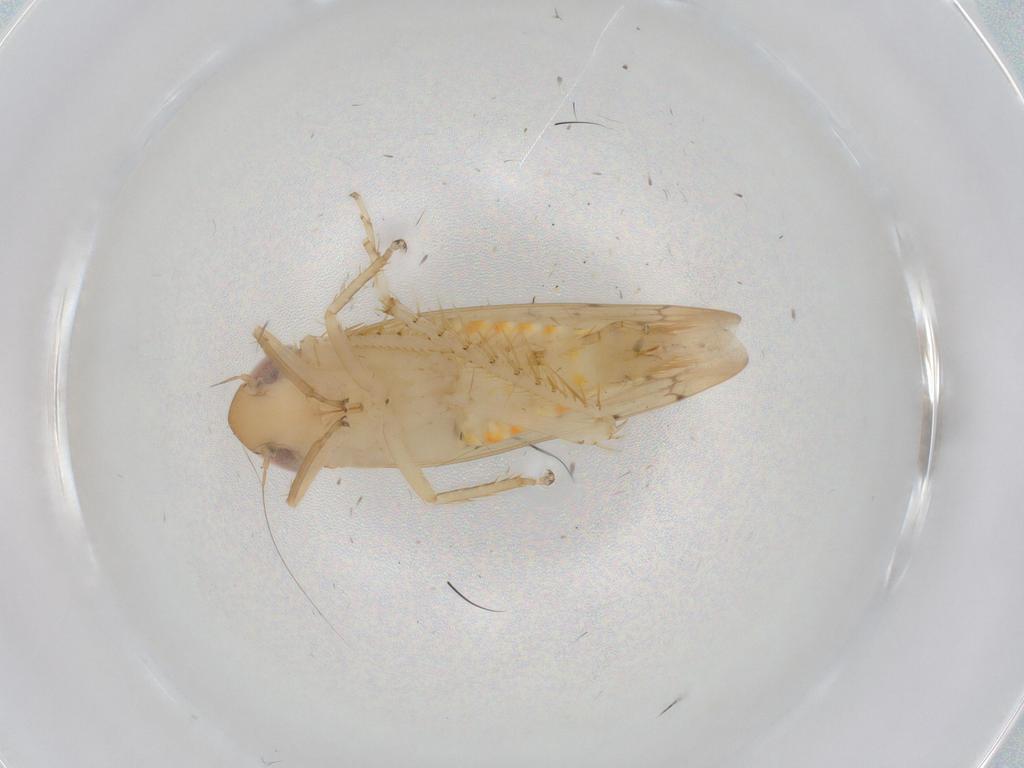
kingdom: Animalia
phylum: Arthropoda
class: Insecta
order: Hemiptera
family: Cicadellidae
